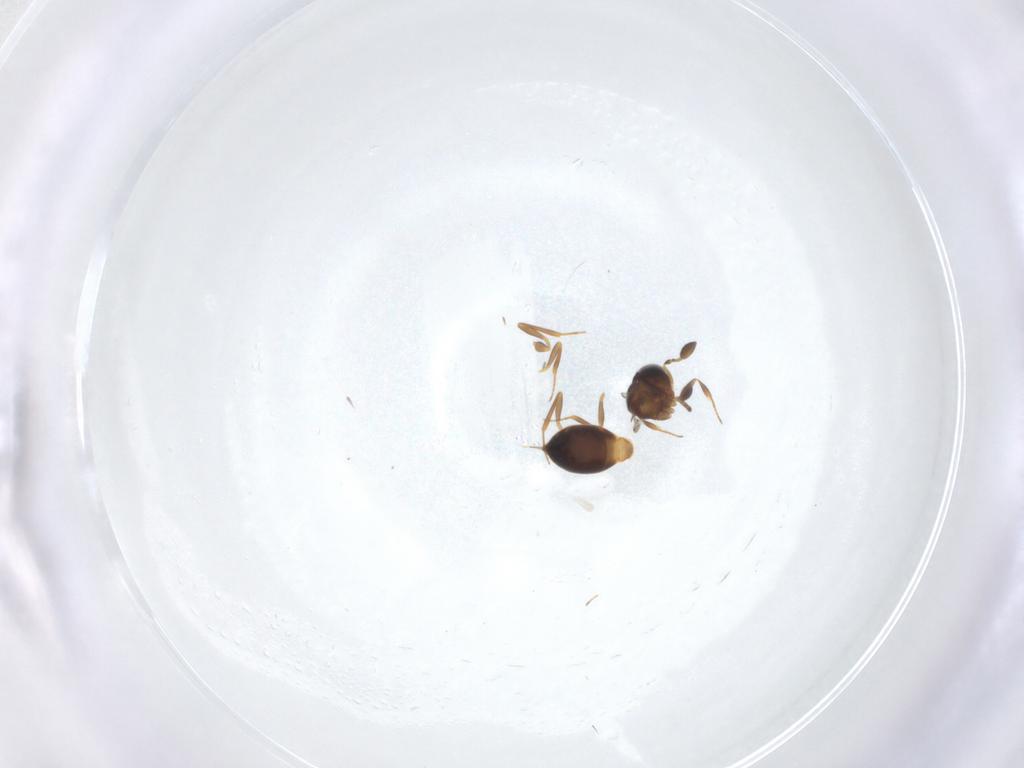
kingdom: Animalia
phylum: Arthropoda
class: Insecta
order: Hymenoptera
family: Scelionidae
